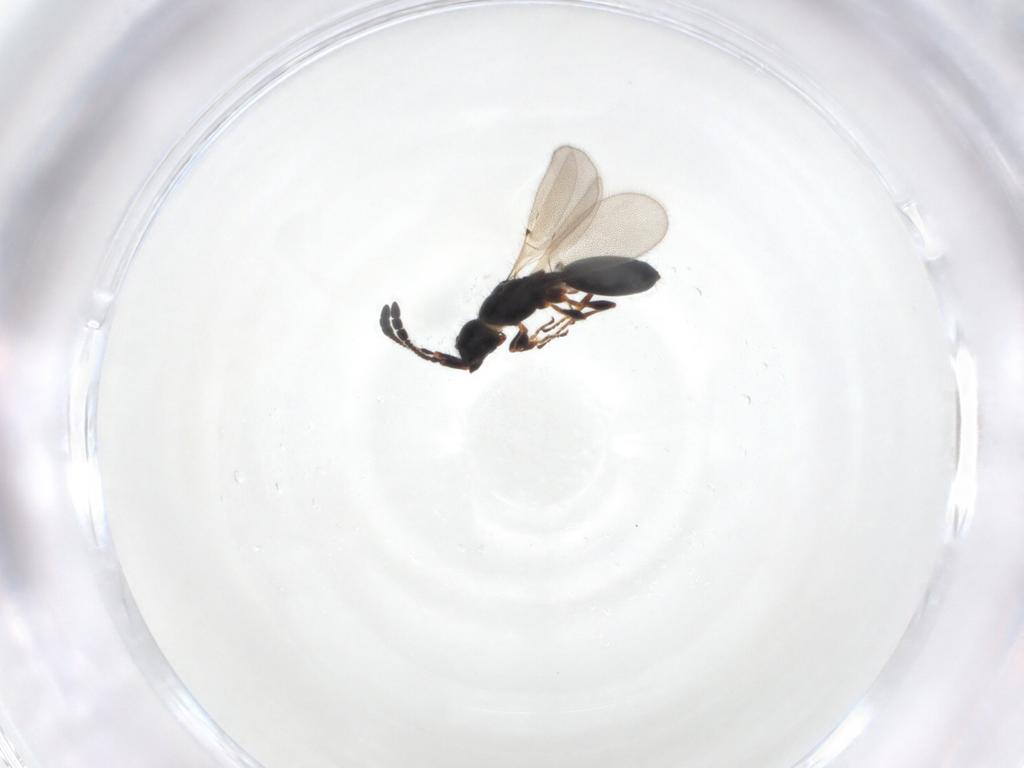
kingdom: Animalia
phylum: Arthropoda
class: Insecta
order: Hymenoptera
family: Diapriidae
